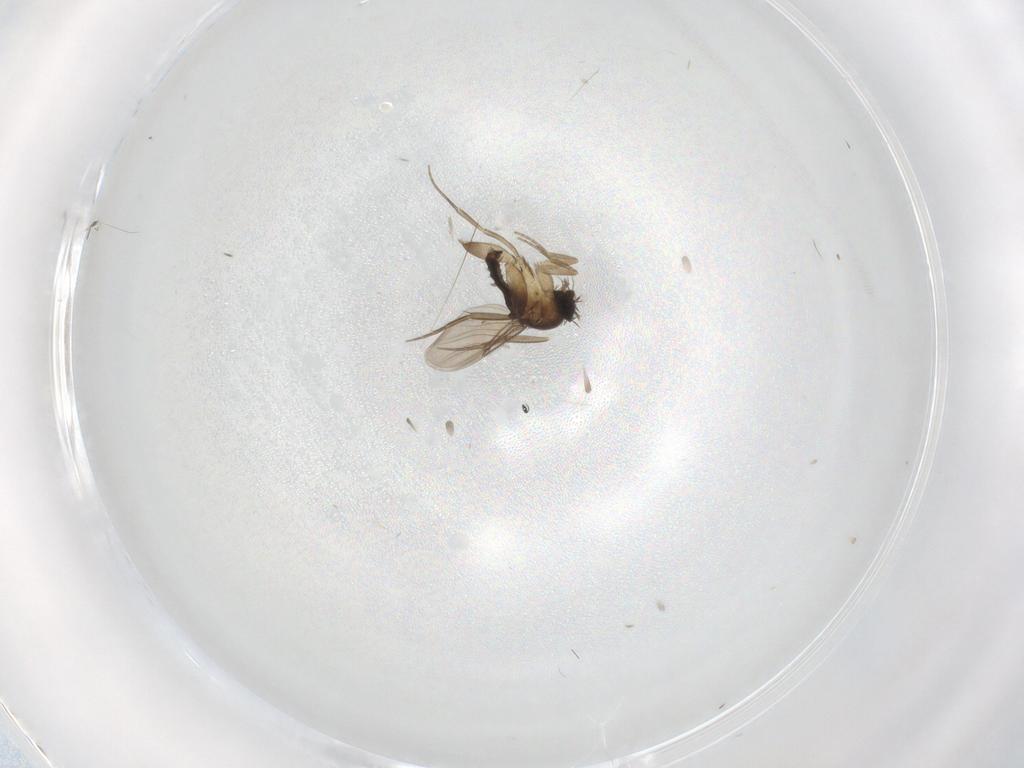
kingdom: Animalia
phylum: Arthropoda
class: Insecta
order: Diptera
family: Phoridae
